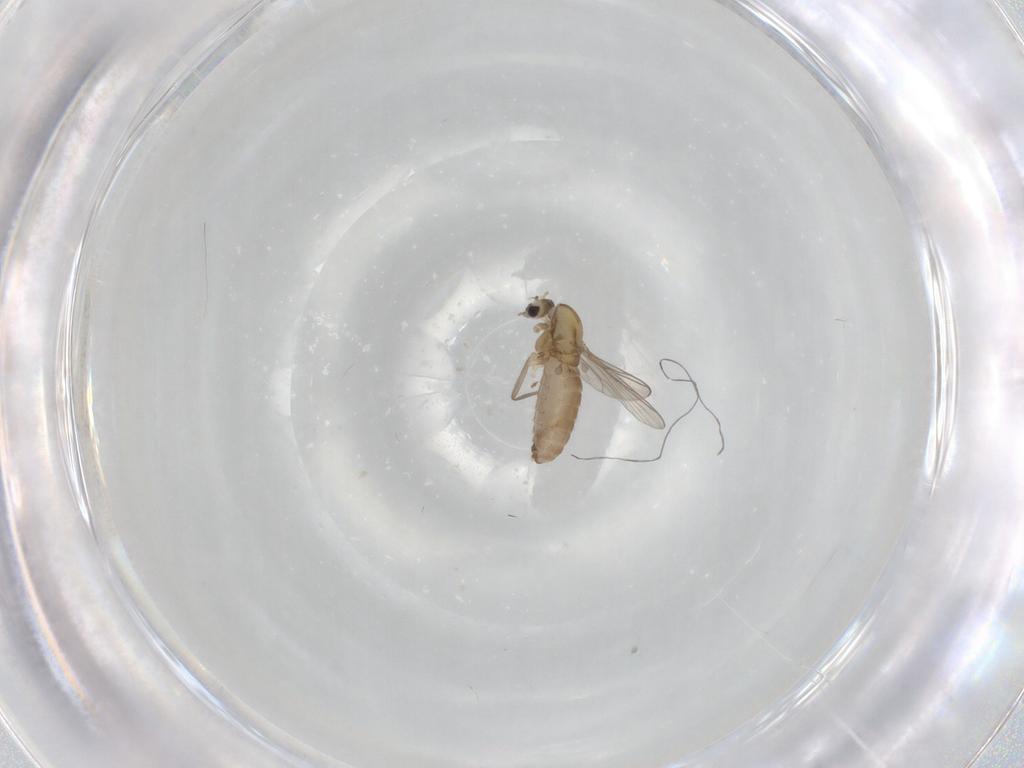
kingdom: Animalia
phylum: Arthropoda
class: Insecta
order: Diptera
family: Chironomidae
